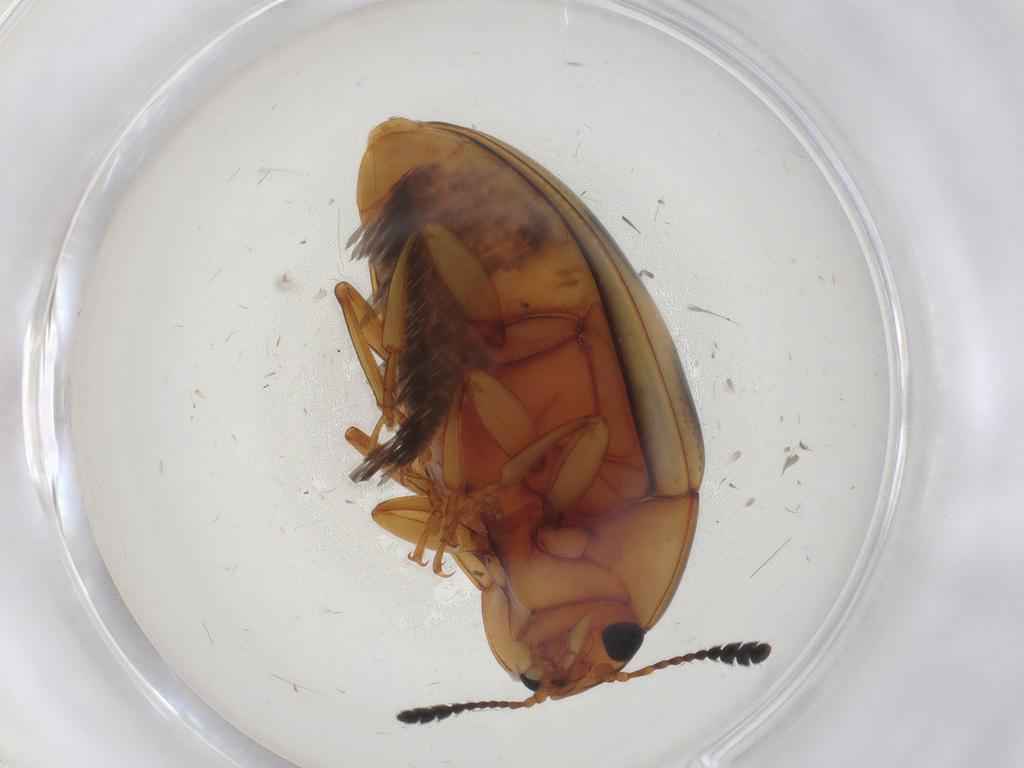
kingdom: Animalia
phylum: Arthropoda
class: Insecta
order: Coleoptera
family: Erotylidae
